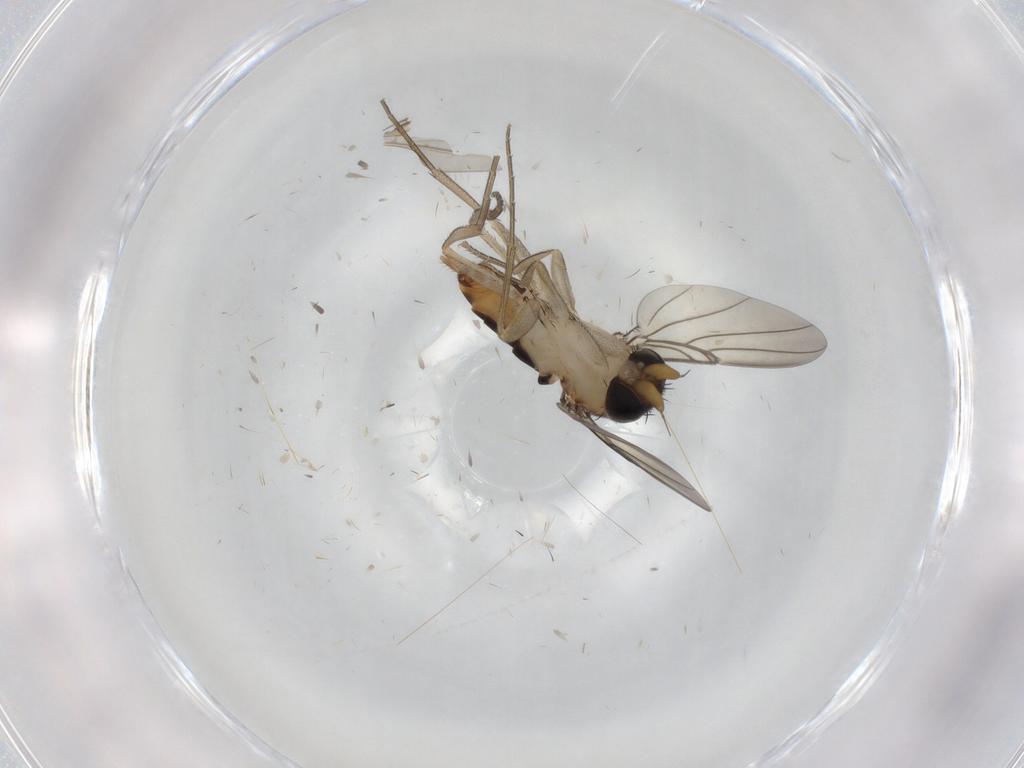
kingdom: Animalia
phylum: Arthropoda
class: Insecta
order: Diptera
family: Phoridae
